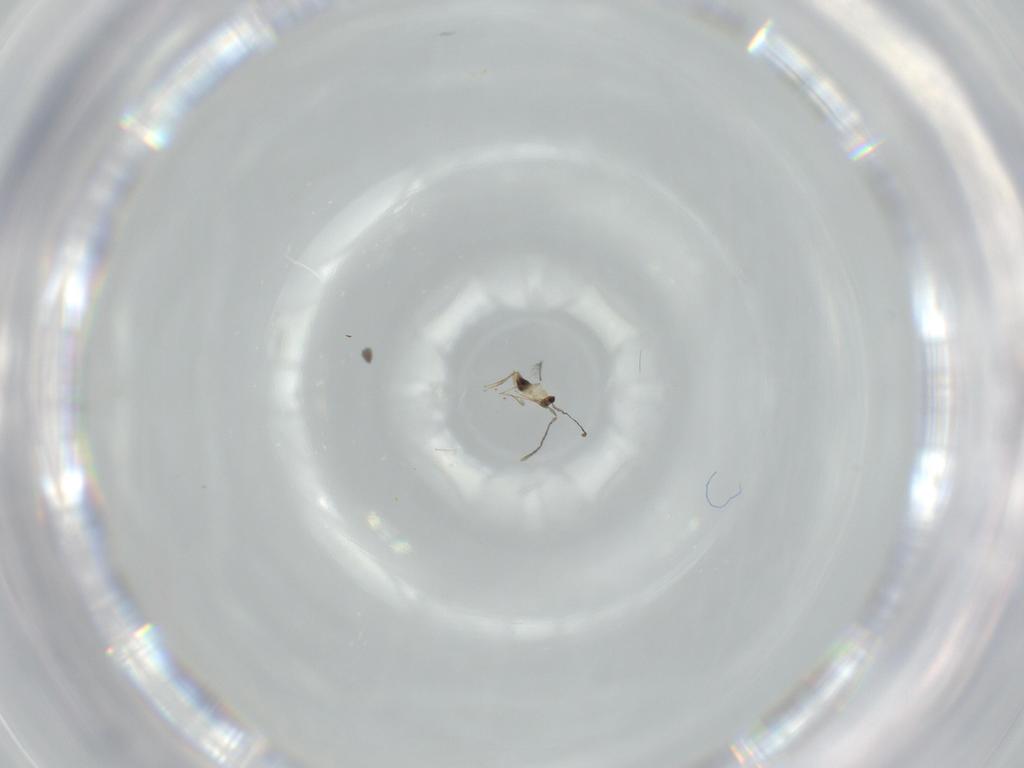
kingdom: Animalia
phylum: Arthropoda
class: Insecta
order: Hymenoptera
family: Mymaridae
